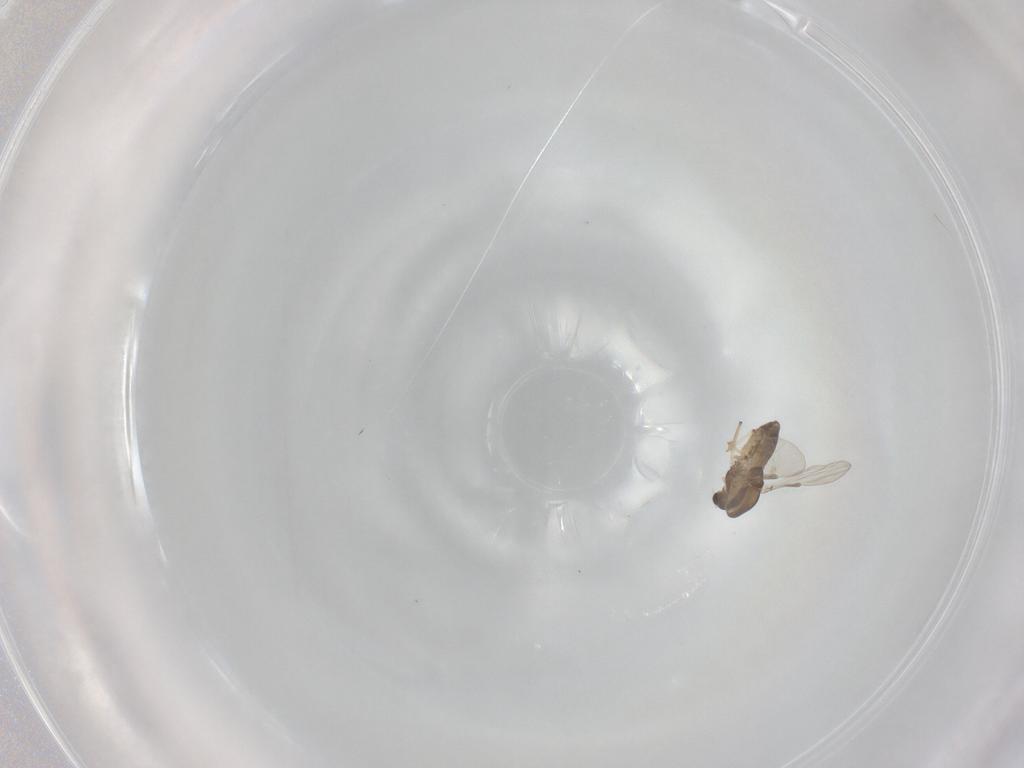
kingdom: Animalia
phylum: Arthropoda
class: Insecta
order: Diptera
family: Chironomidae
